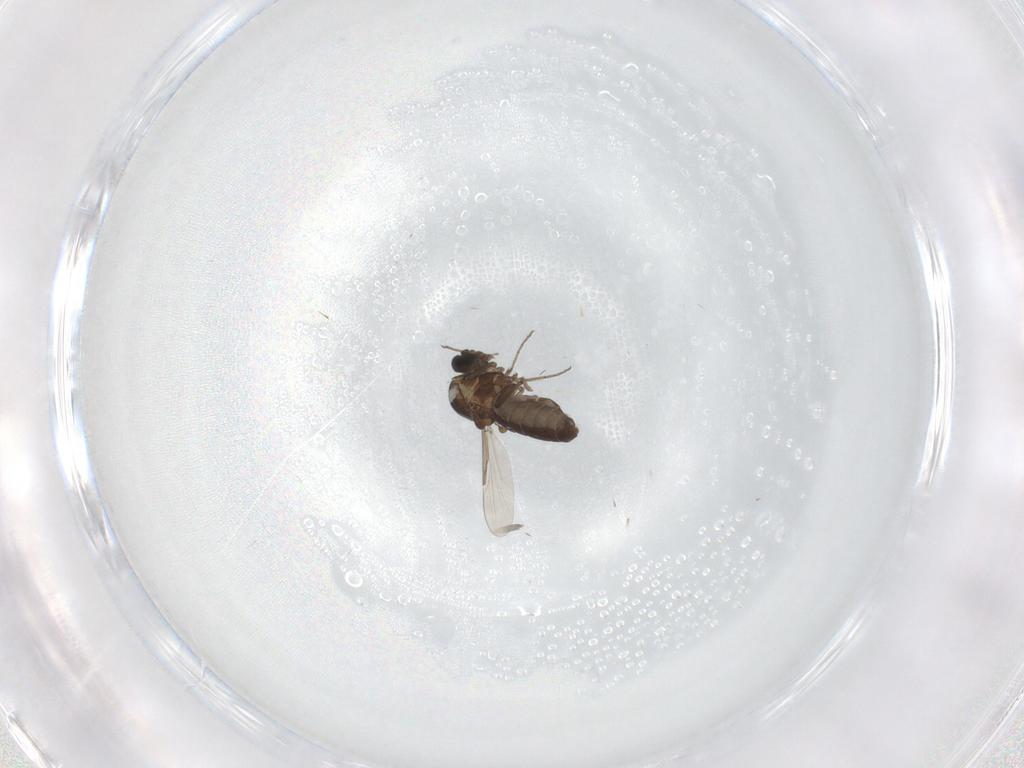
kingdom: Animalia
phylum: Arthropoda
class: Insecta
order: Diptera
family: Ceratopogonidae
